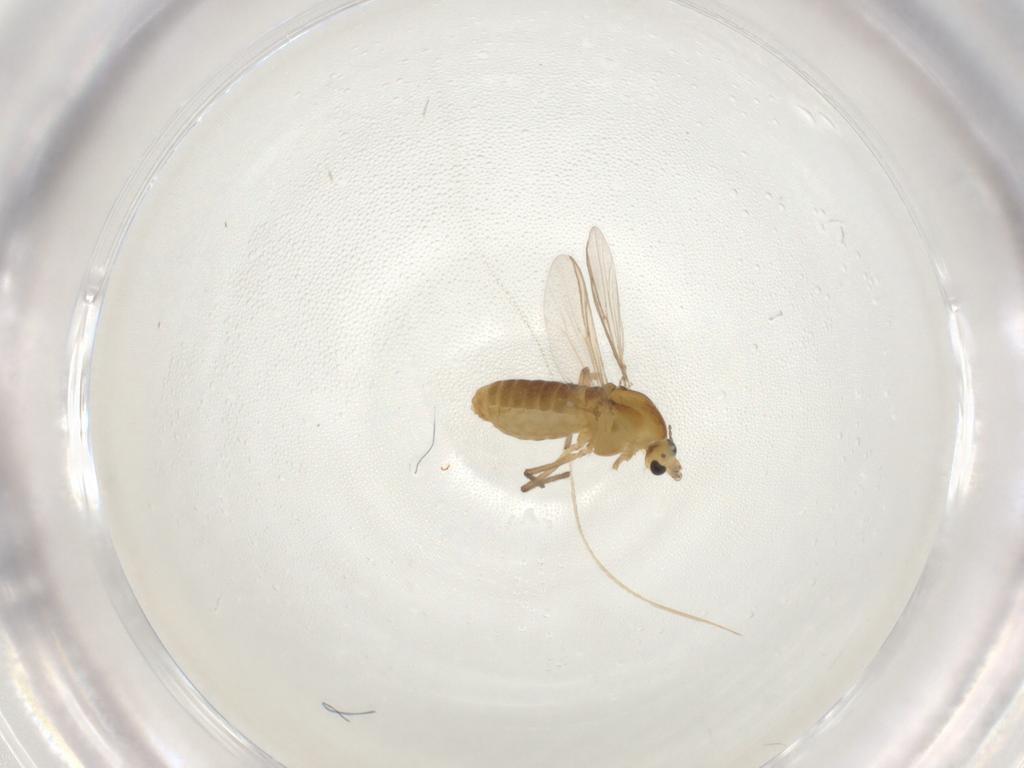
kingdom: Animalia
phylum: Arthropoda
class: Insecta
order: Diptera
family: Chironomidae
